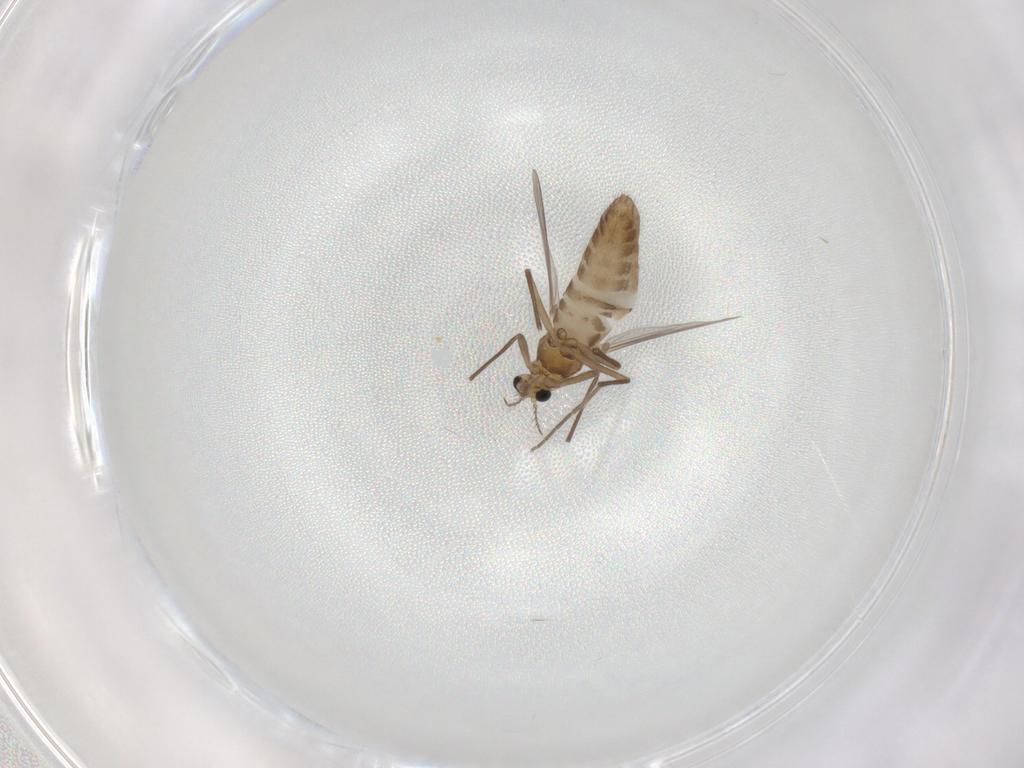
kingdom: Animalia
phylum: Arthropoda
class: Insecta
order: Diptera
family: Chironomidae
